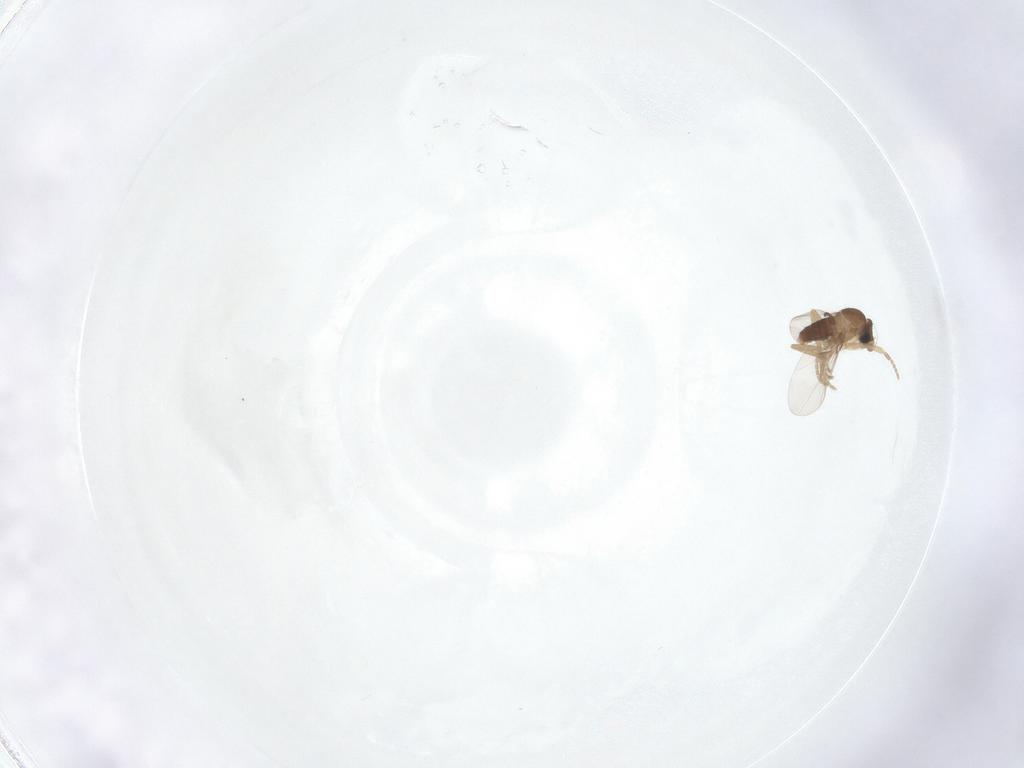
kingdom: Animalia
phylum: Arthropoda
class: Insecta
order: Diptera
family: Phoridae
